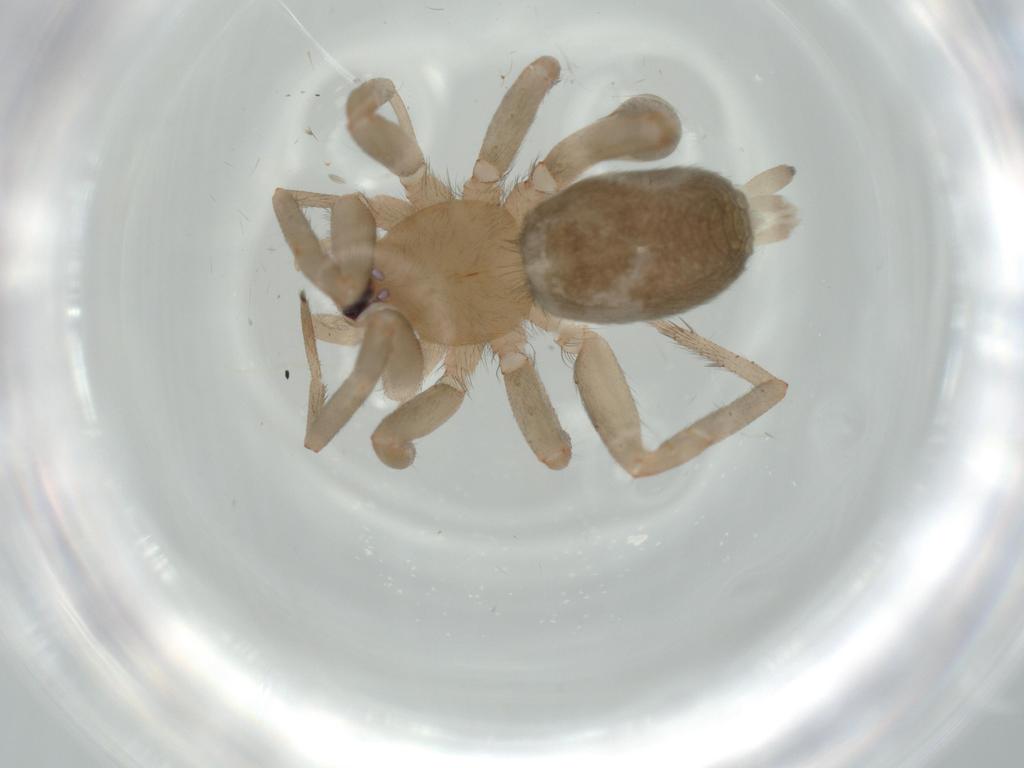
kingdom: Animalia
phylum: Arthropoda
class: Arachnida
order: Araneae
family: Gnaphosidae
